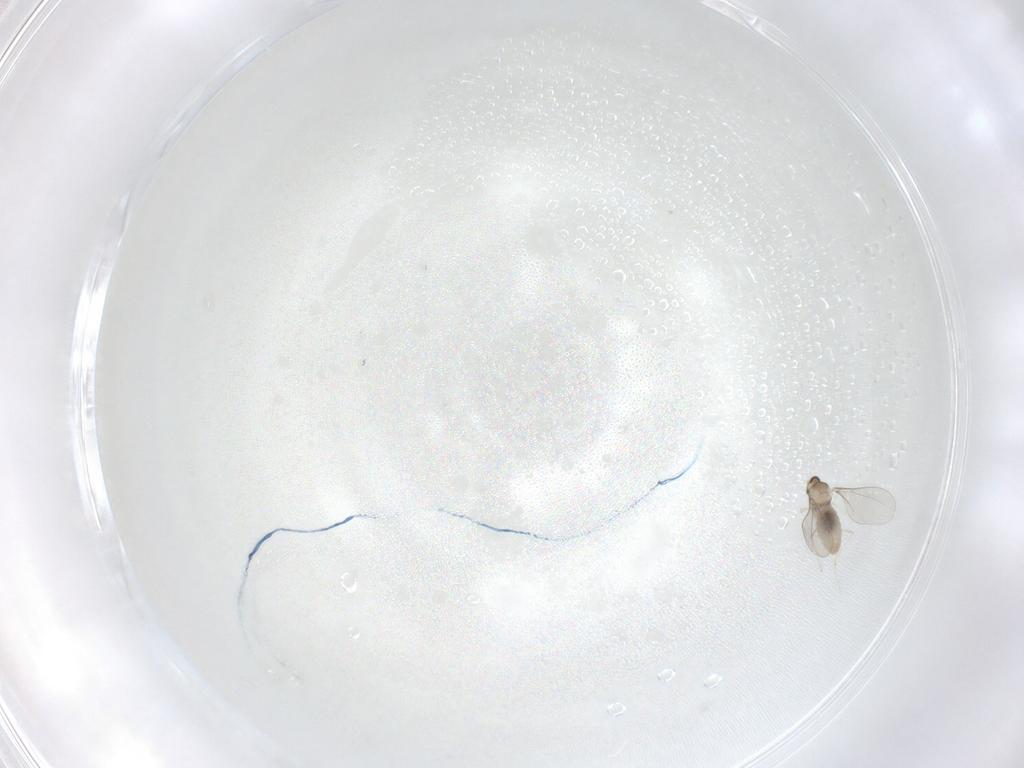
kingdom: Animalia
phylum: Arthropoda
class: Insecta
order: Diptera
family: Cecidomyiidae
